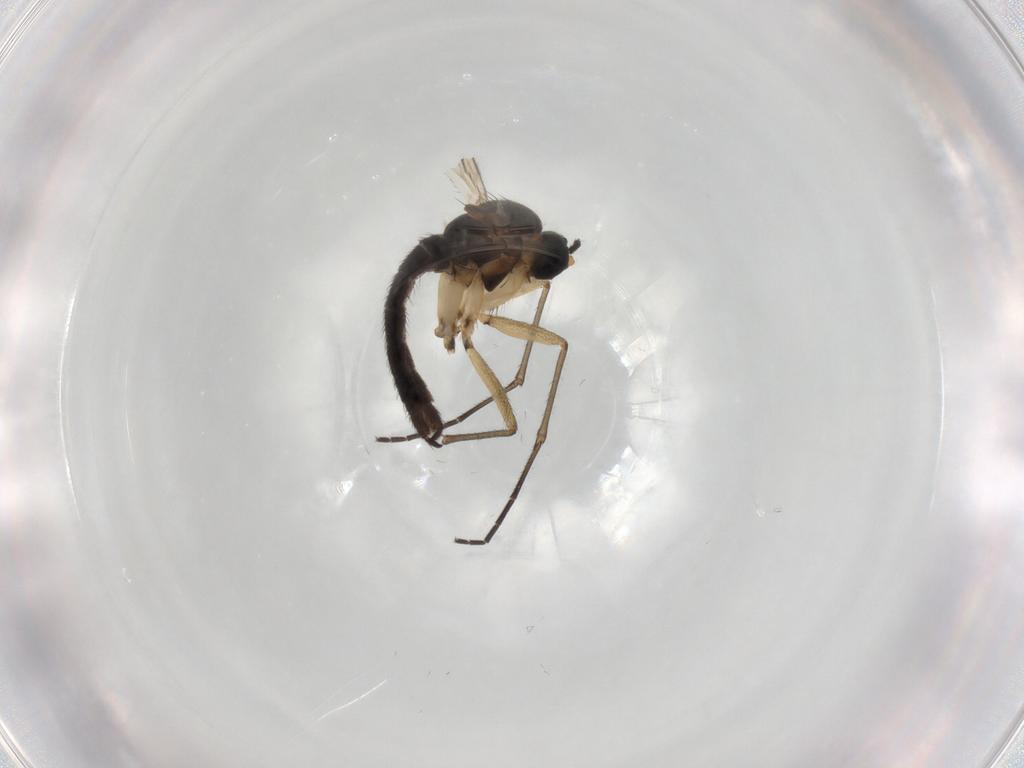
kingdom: Animalia
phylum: Arthropoda
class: Insecta
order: Diptera
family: Sciaridae
